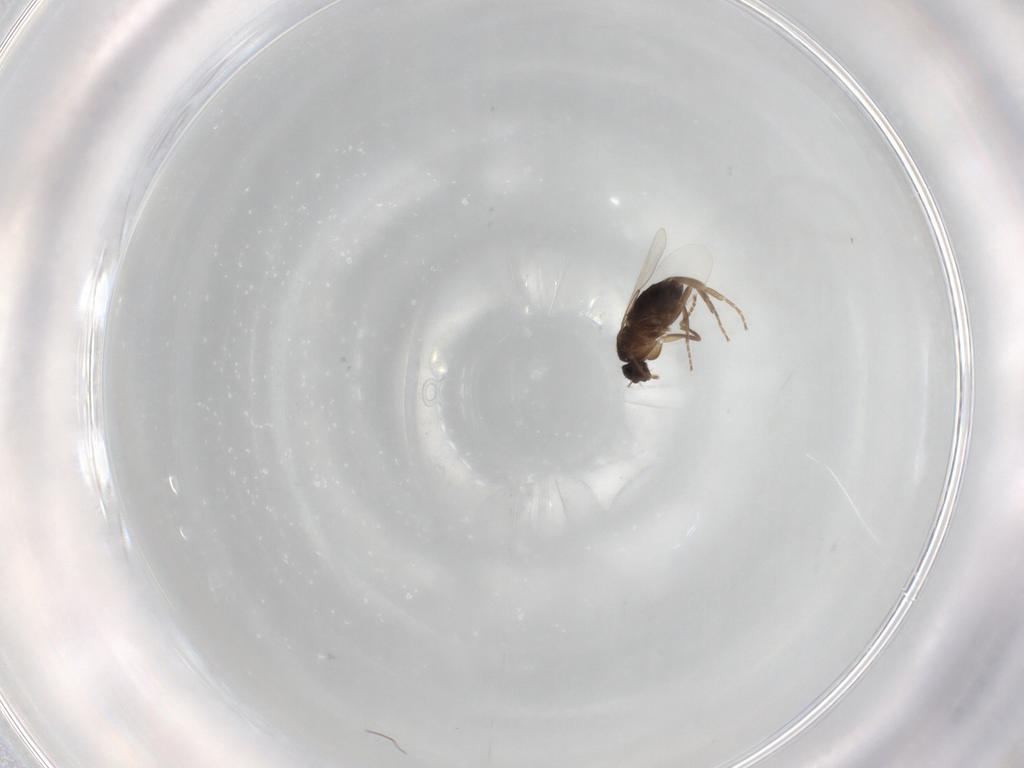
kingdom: Animalia
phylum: Arthropoda
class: Insecta
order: Diptera
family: Phoridae
